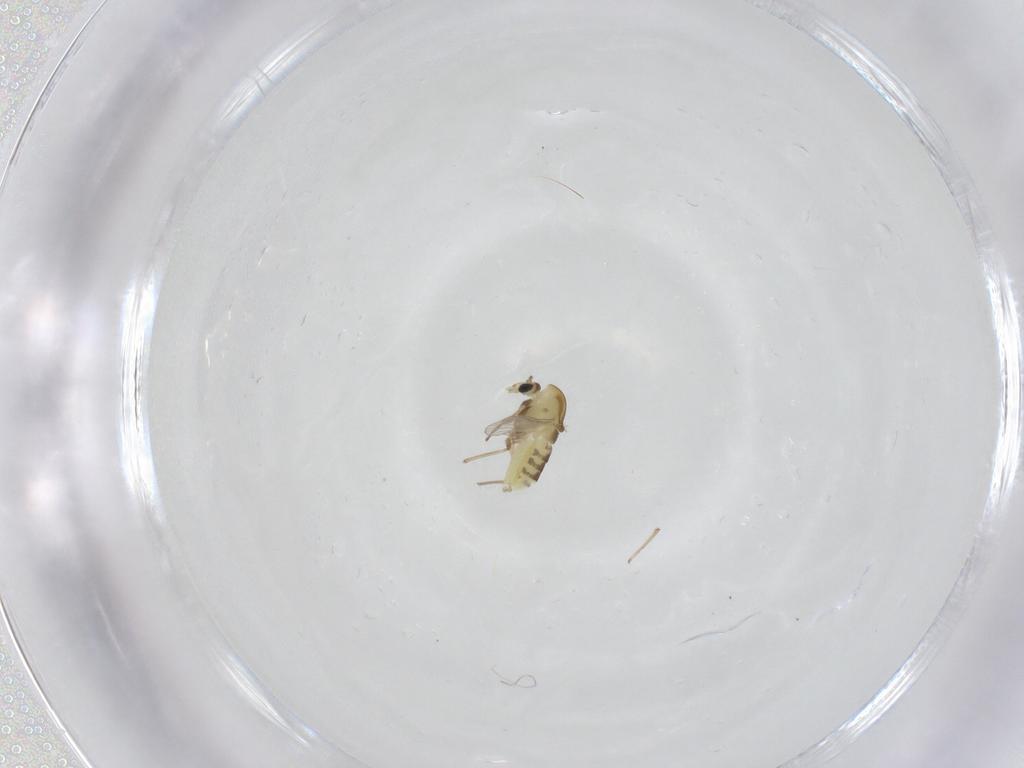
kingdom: Animalia
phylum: Arthropoda
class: Insecta
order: Diptera
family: Chironomidae
